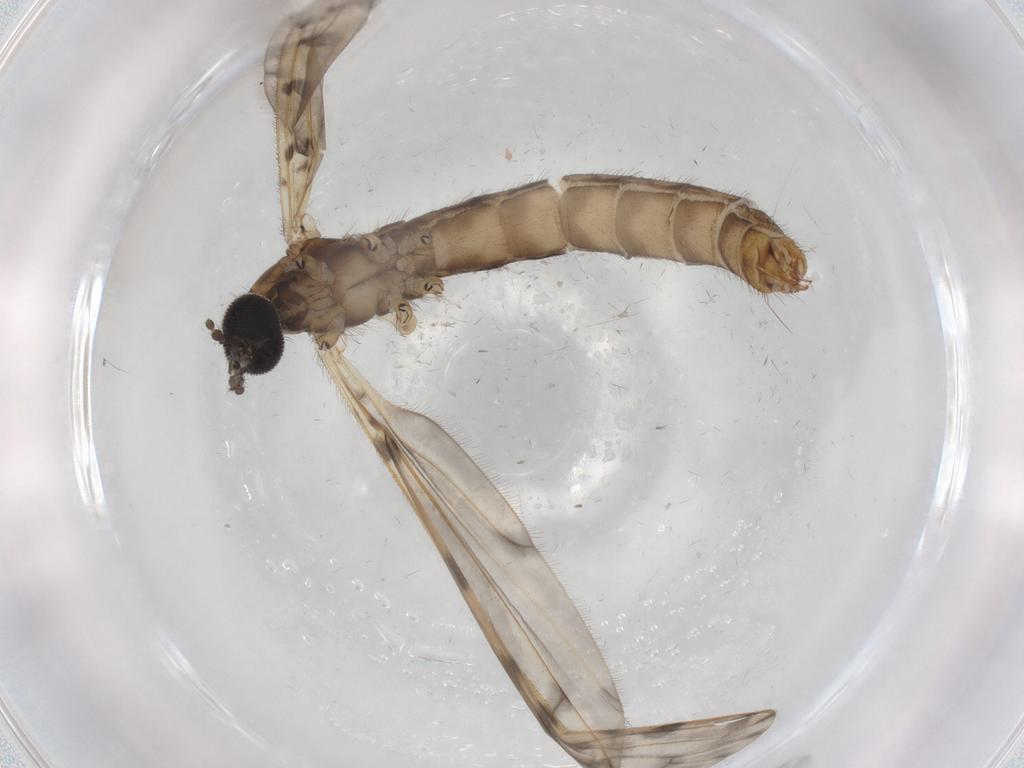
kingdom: Animalia
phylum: Arthropoda
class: Insecta
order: Diptera
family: Limoniidae
